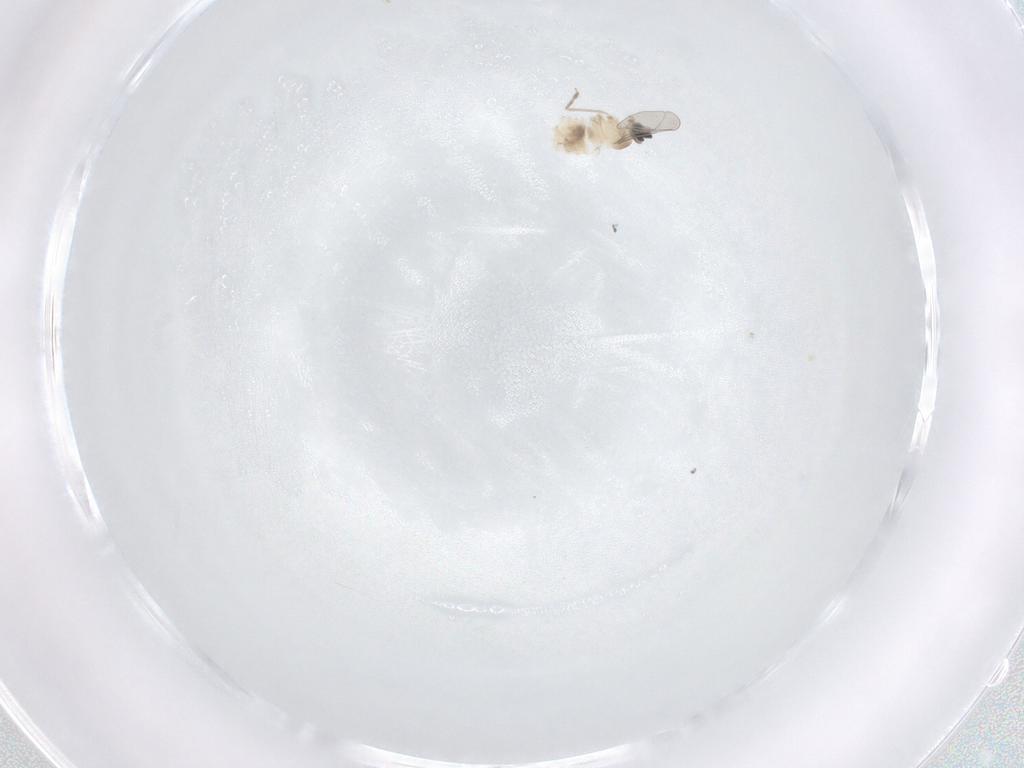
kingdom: Animalia
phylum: Arthropoda
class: Insecta
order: Diptera
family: Cecidomyiidae
